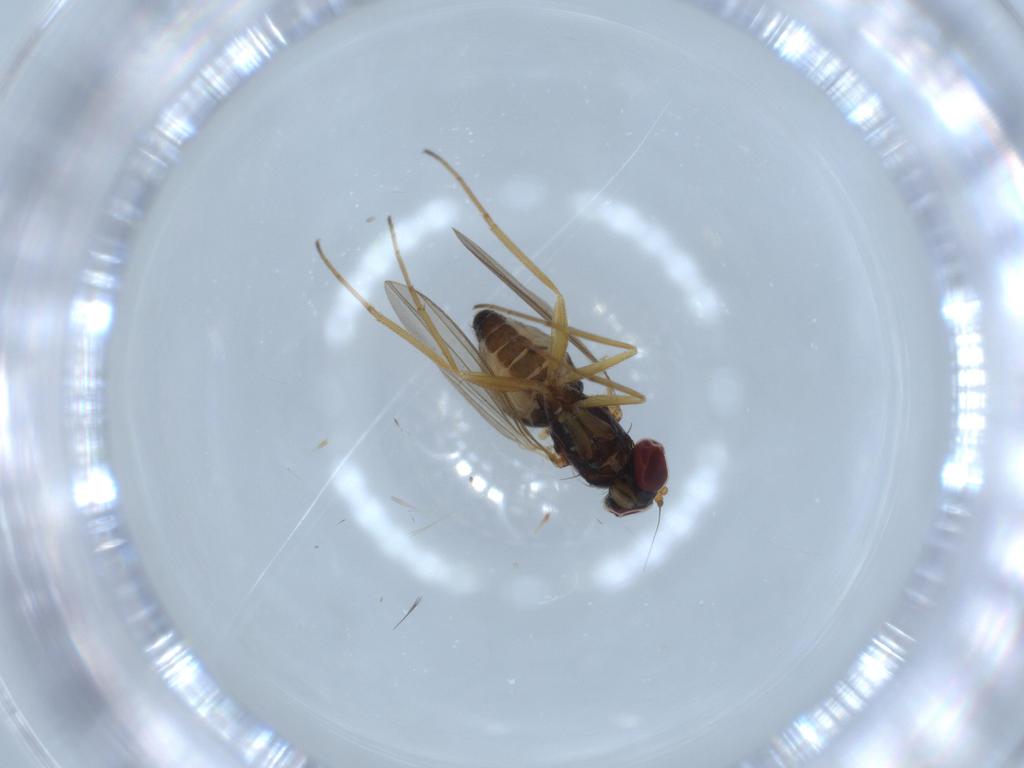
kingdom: Animalia
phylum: Arthropoda
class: Insecta
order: Diptera
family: Dolichopodidae
